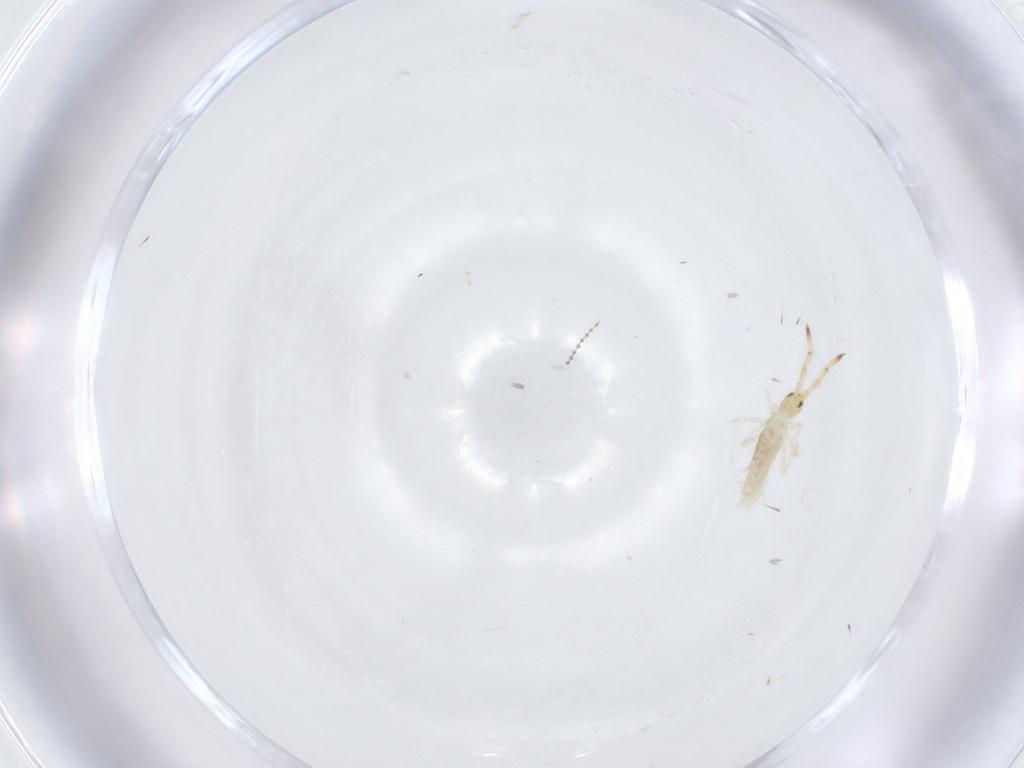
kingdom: Animalia
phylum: Arthropoda
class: Collembola
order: Entomobryomorpha
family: Entomobryidae
